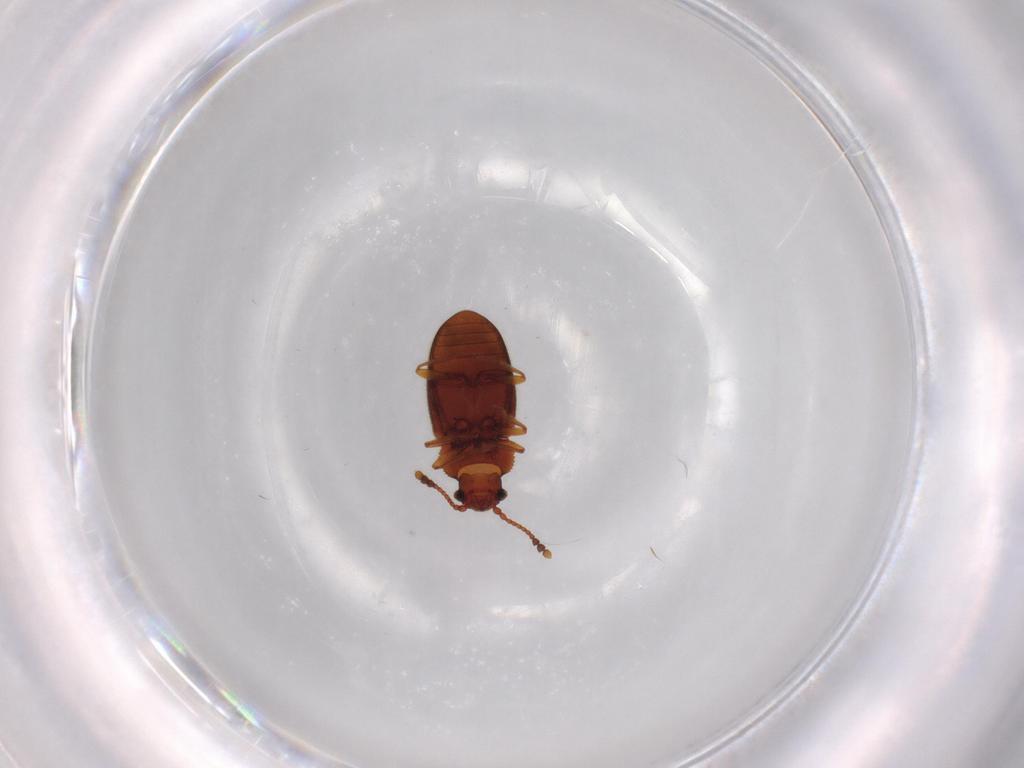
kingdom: Animalia
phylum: Arthropoda
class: Insecta
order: Coleoptera
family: Cryptophagidae
